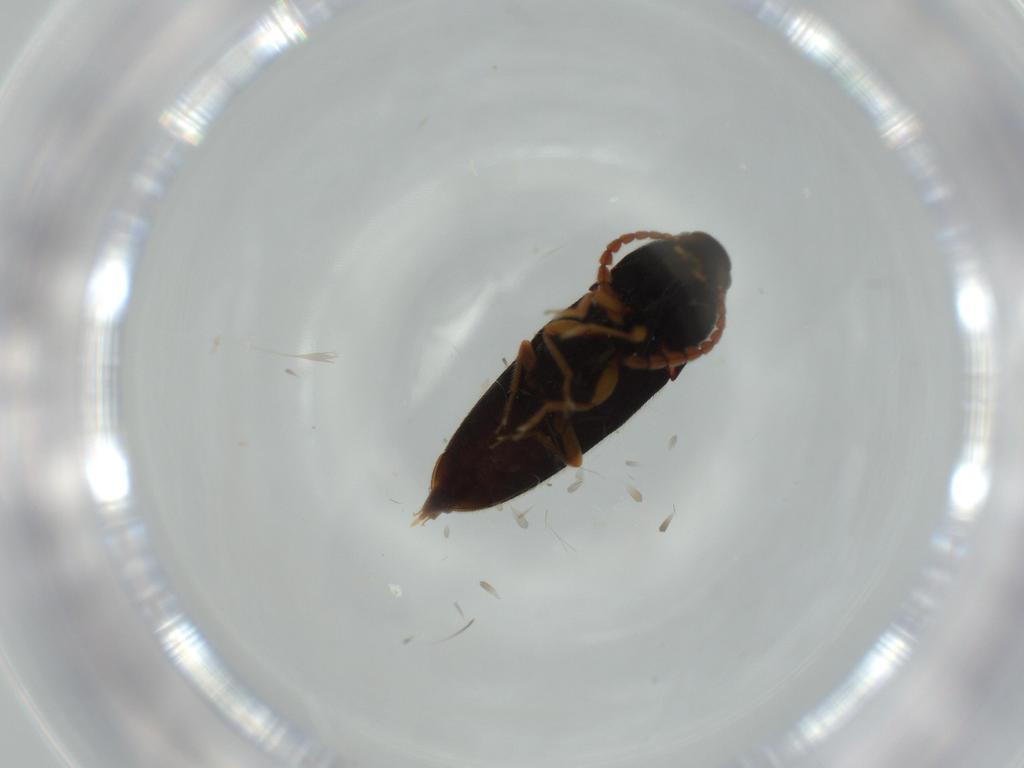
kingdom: Animalia
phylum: Arthropoda
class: Insecta
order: Coleoptera
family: Elateridae
